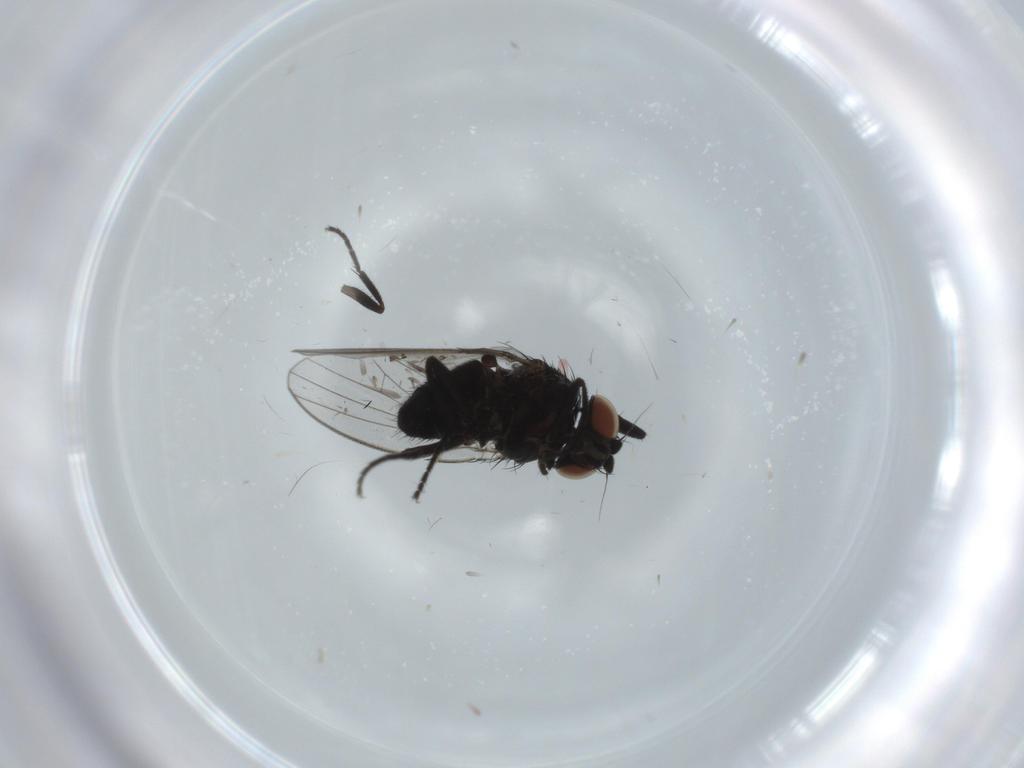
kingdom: Animalia
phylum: Arthropoda
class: Insecta
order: Diptera
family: Milichiidae
